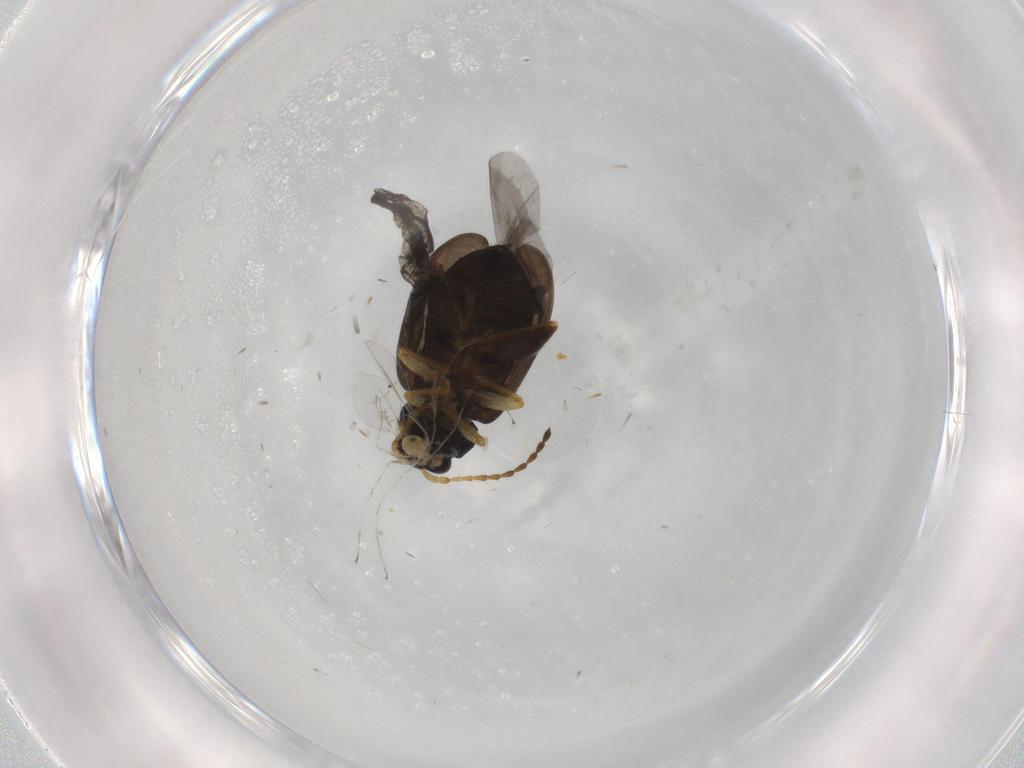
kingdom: Animalia
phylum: Arthropoda
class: Insecta
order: Coleoptera
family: Chrysomelidae
